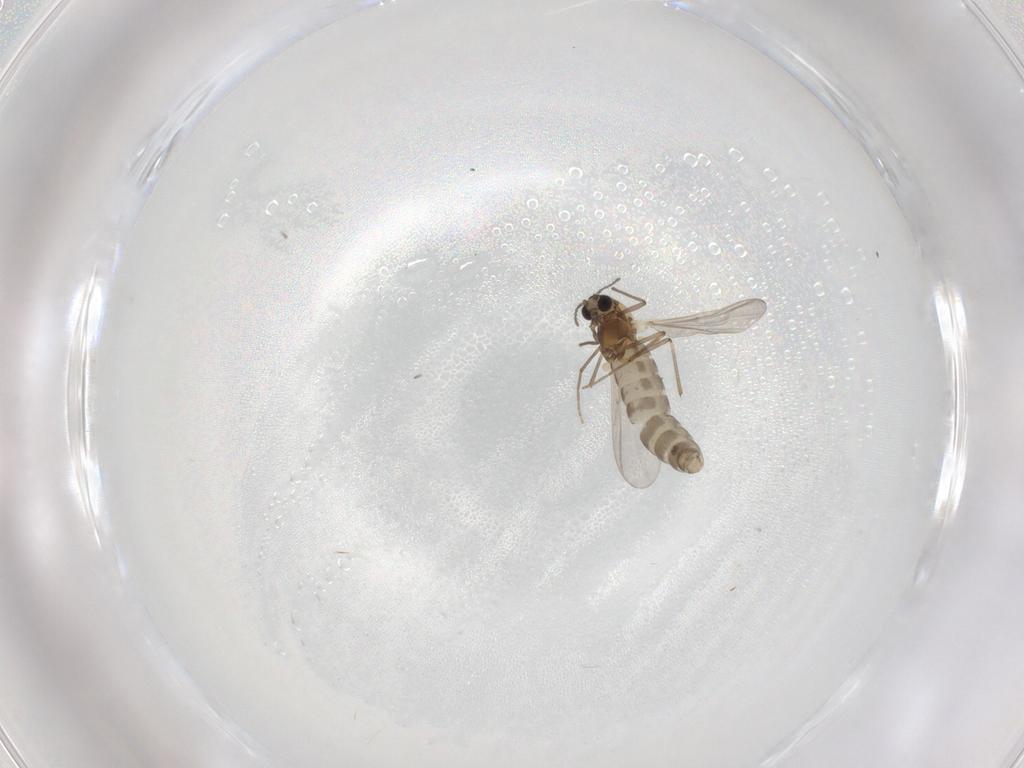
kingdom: Animalia
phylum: Arthropoda
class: Insecta
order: Diptera
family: Chironomidae
